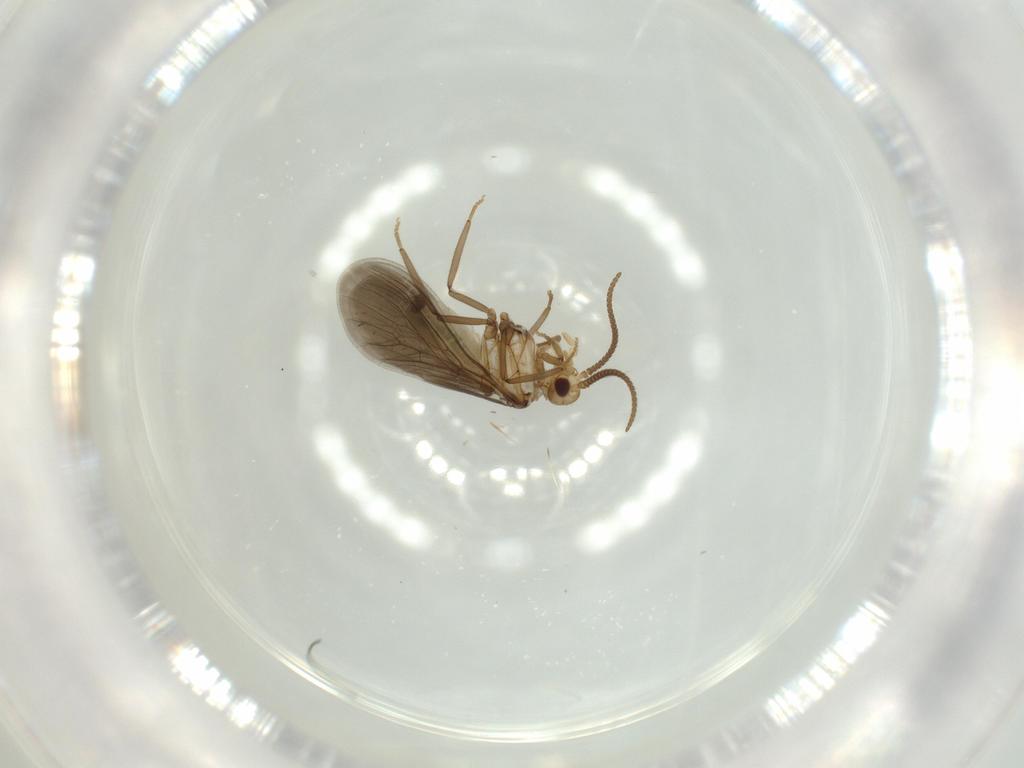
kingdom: Animalia
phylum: Arthropoda
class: Insecta
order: Neuroptera
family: Coniopterygidae
